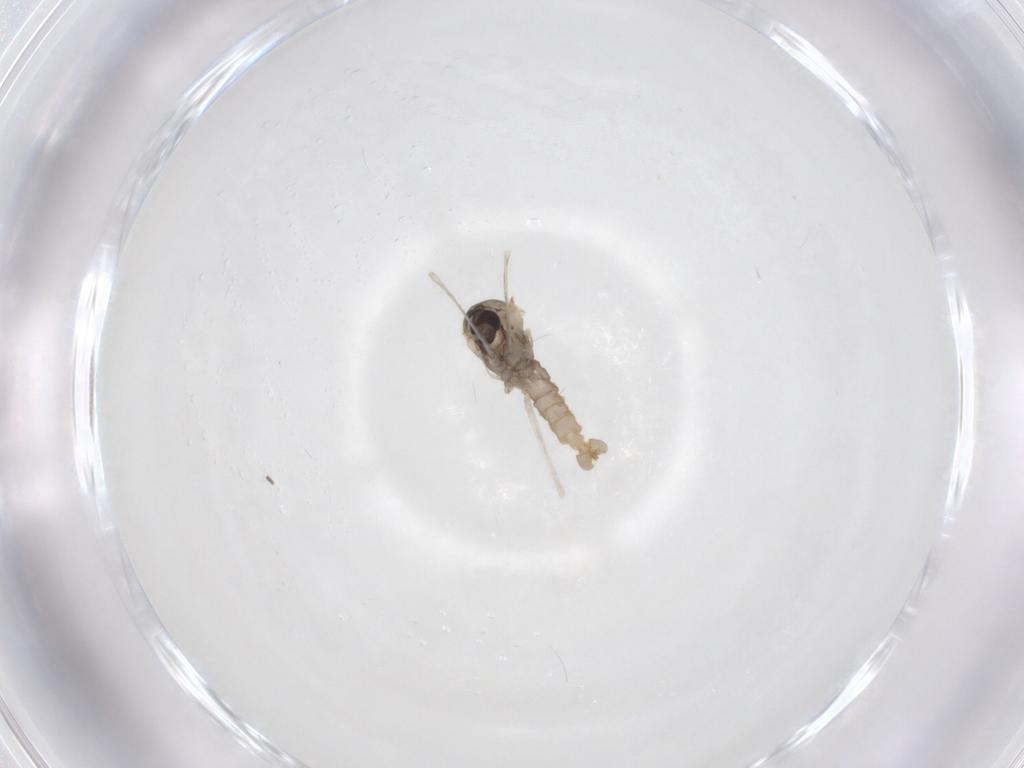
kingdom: Animalia
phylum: Arthropoda
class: Insecta
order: Diptera
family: Cecidomyiidae
